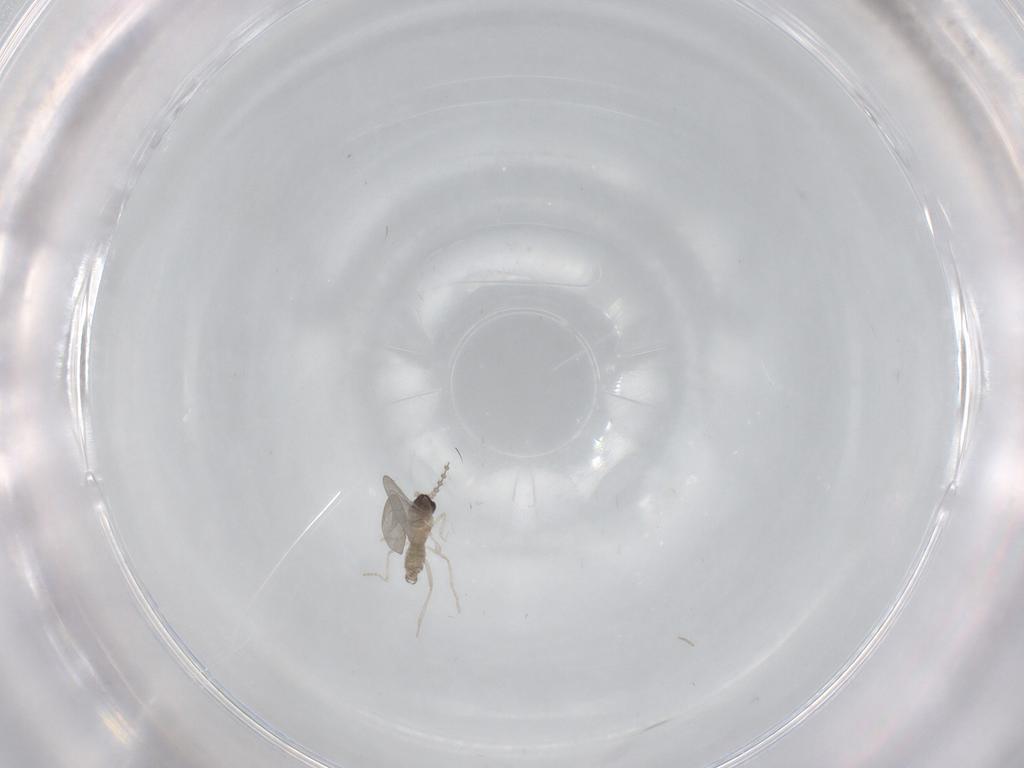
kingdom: Animalia
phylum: Arthropoda
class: Insecta
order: Diptera
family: Cecidomyiidae
